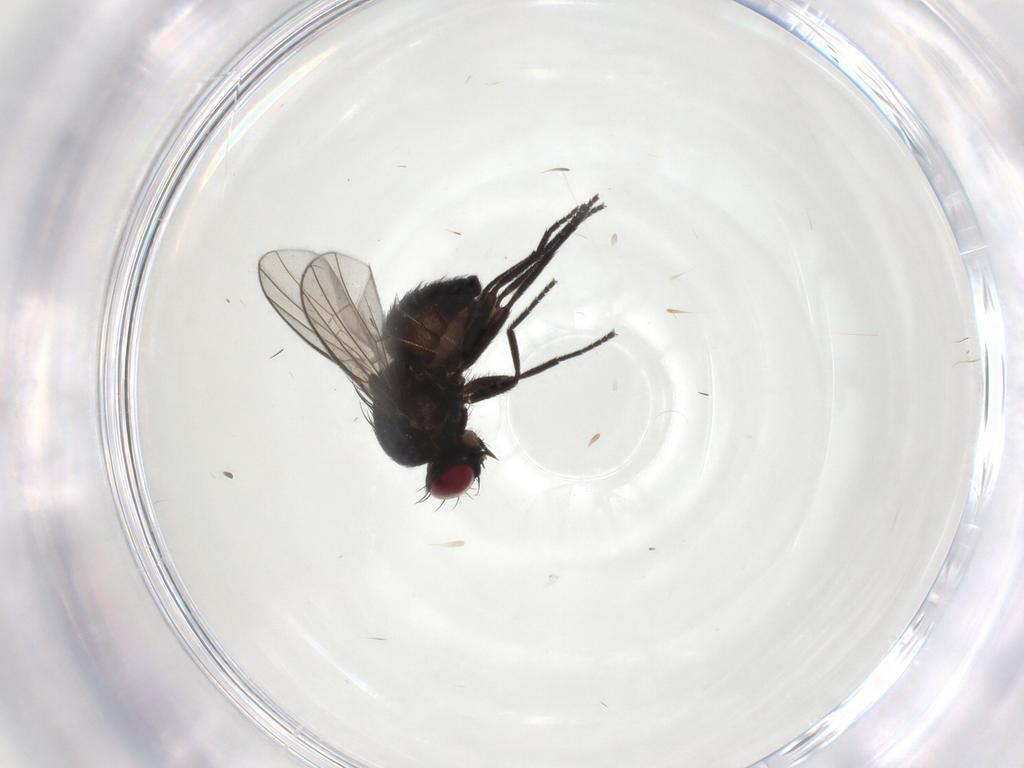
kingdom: Animalia
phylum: Arthropoda
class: Insecta
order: Diptera
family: Agromyzidae
